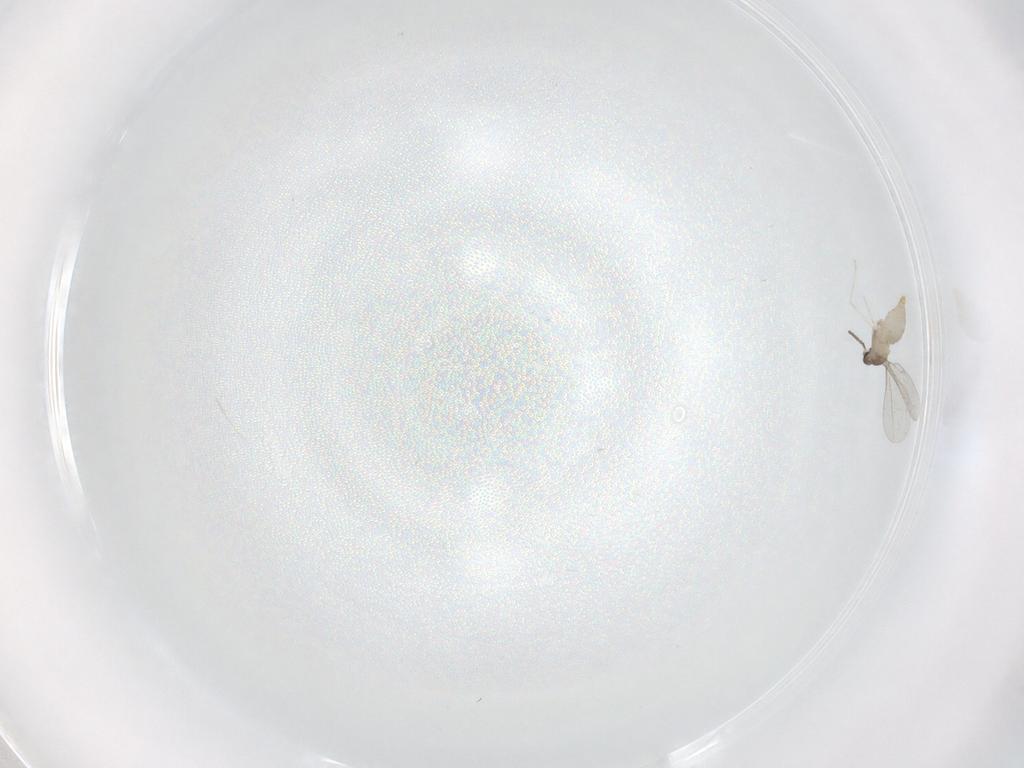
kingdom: Animalia
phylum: Arthropoda
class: Insecta
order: Diptera
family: Cecidomyiidae
